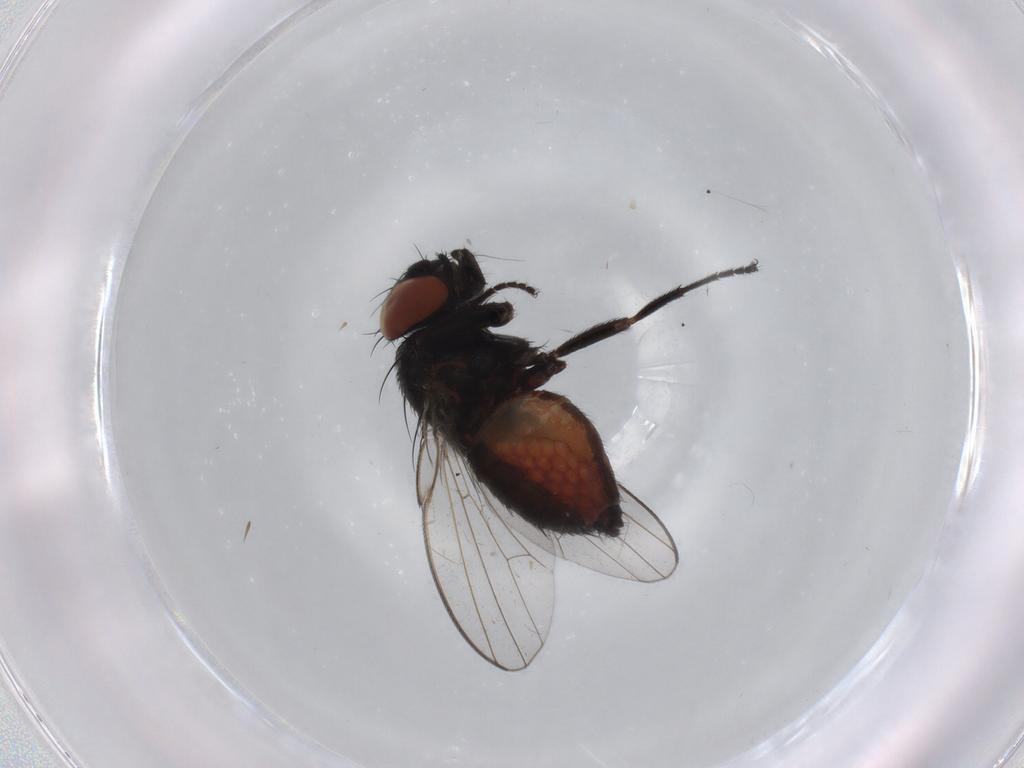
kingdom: Animalia
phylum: Arthropoda
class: Insecta
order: Diptera
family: Milichiidae
